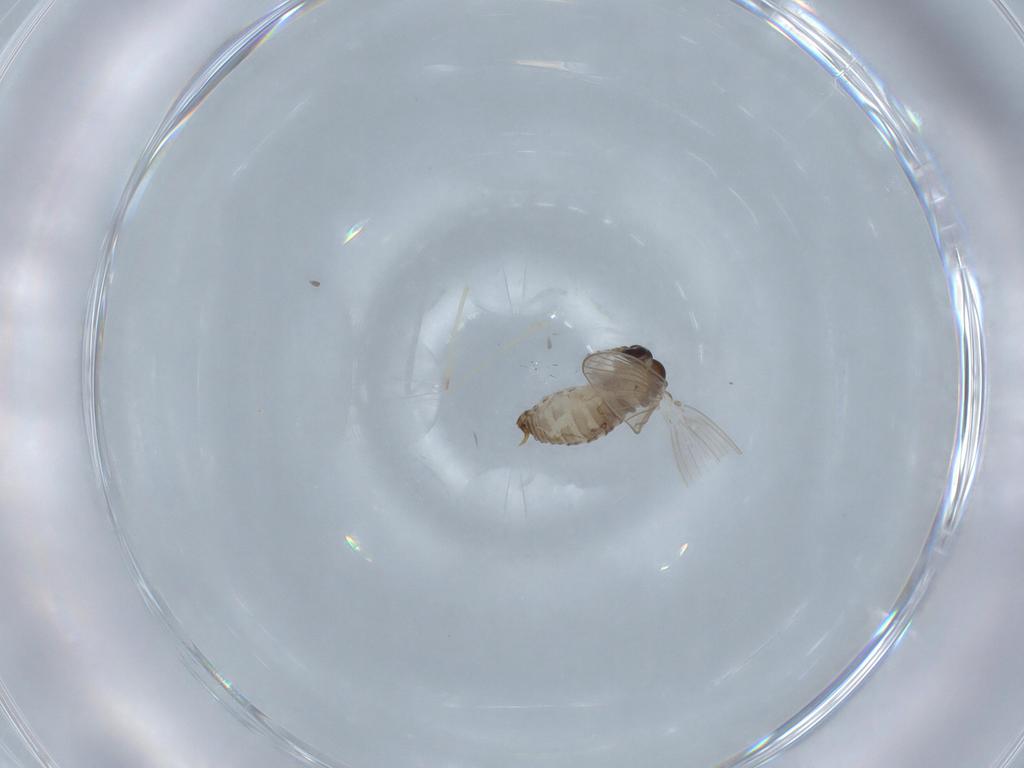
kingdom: Animalia
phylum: Arthropoda
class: Insecta
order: Diptera
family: Psychodidae
